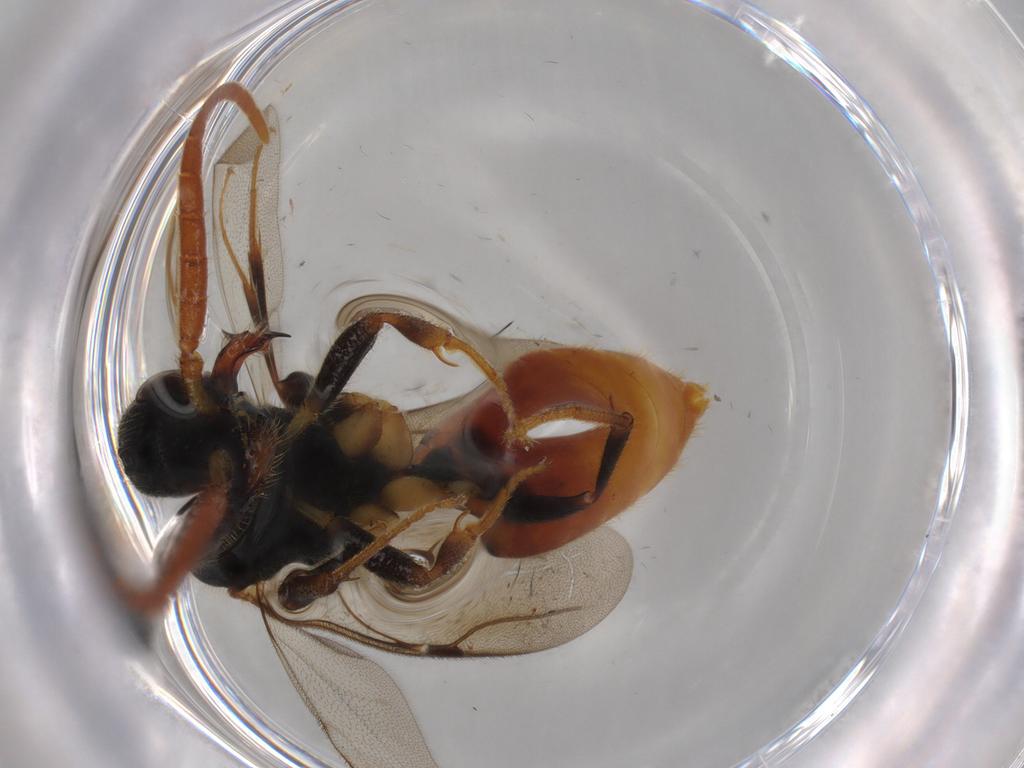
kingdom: Animalia
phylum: Arthropoda
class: Insecta
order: Hymenoptera
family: Bethylidae
